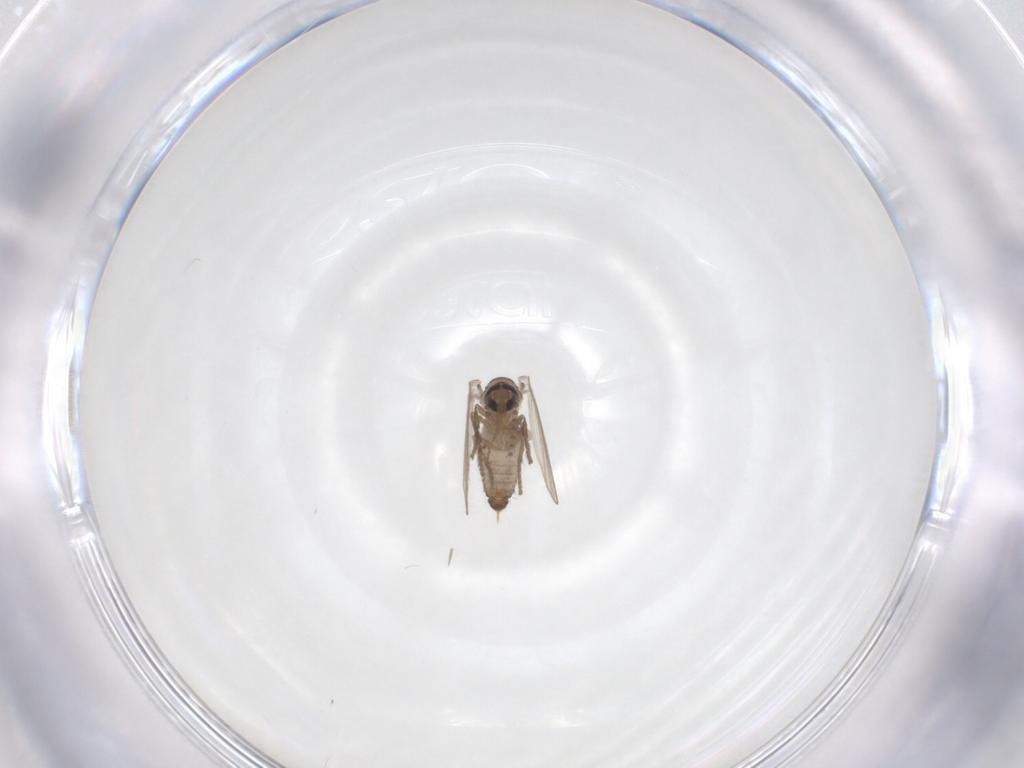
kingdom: Animalia
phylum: Arthropoda
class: Insecta
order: Diptera
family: Psychodidae
